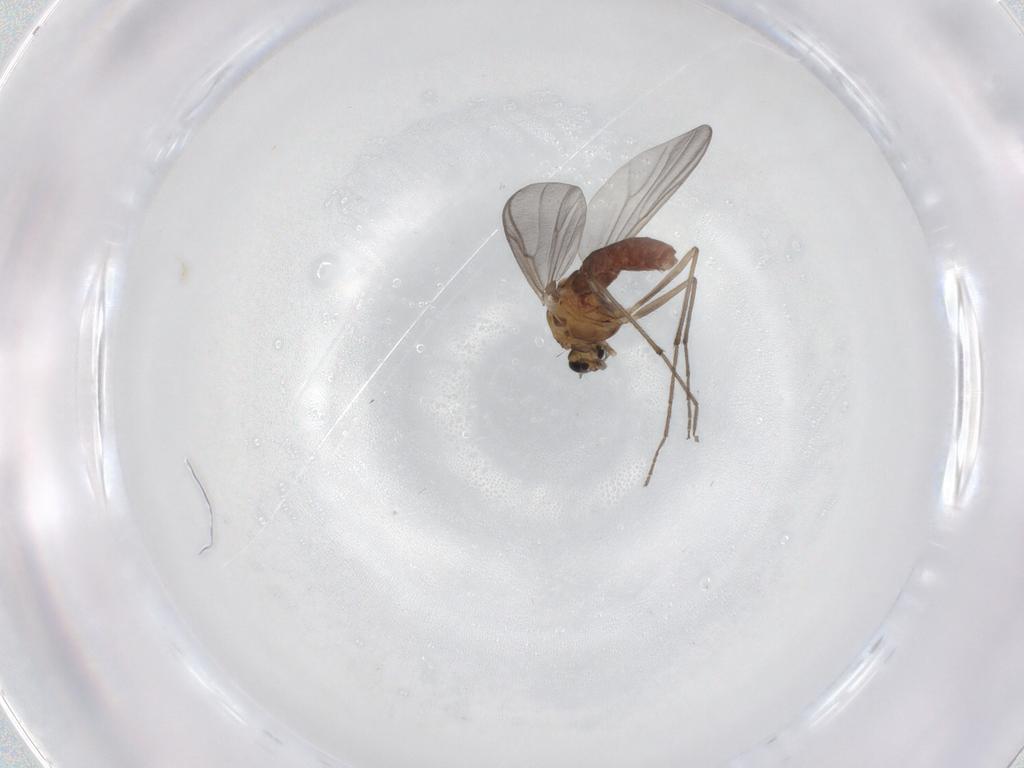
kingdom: Animalia
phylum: Arthropoda
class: Insecta
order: Diptera
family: Chironomidae
